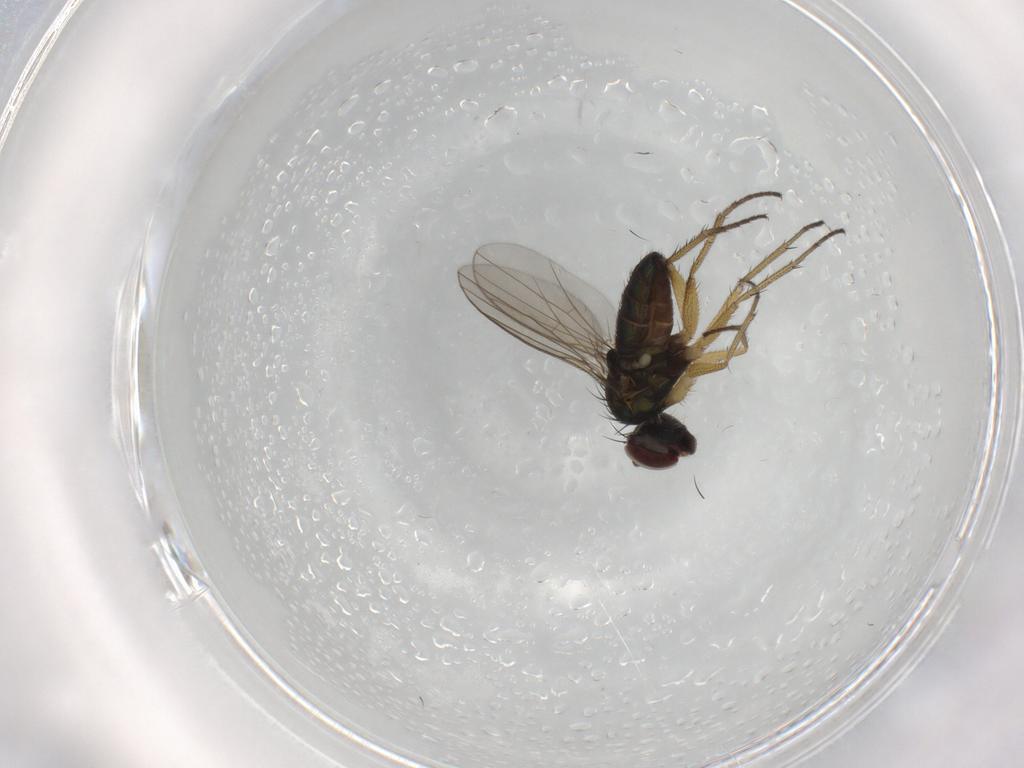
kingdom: Animalia
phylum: Arthropoda
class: Insecta
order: Diptera
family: Dolichopodidae
